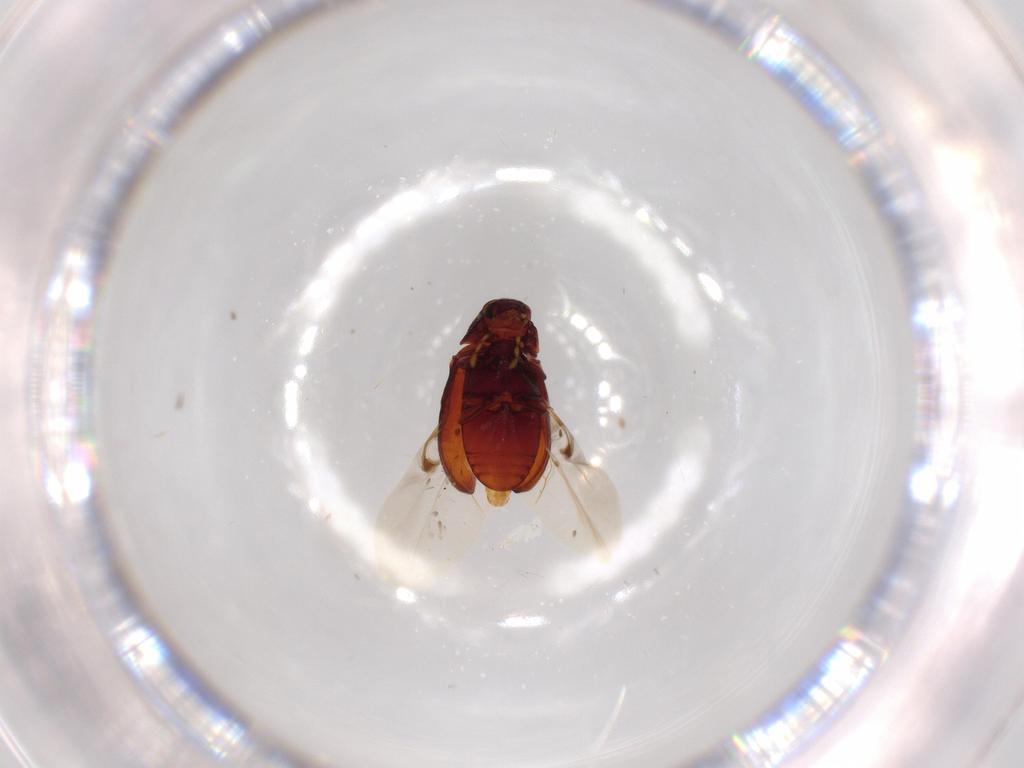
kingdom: Animalia
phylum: Arthropoda
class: Insecta
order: Coleoptera
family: Ptinidae
